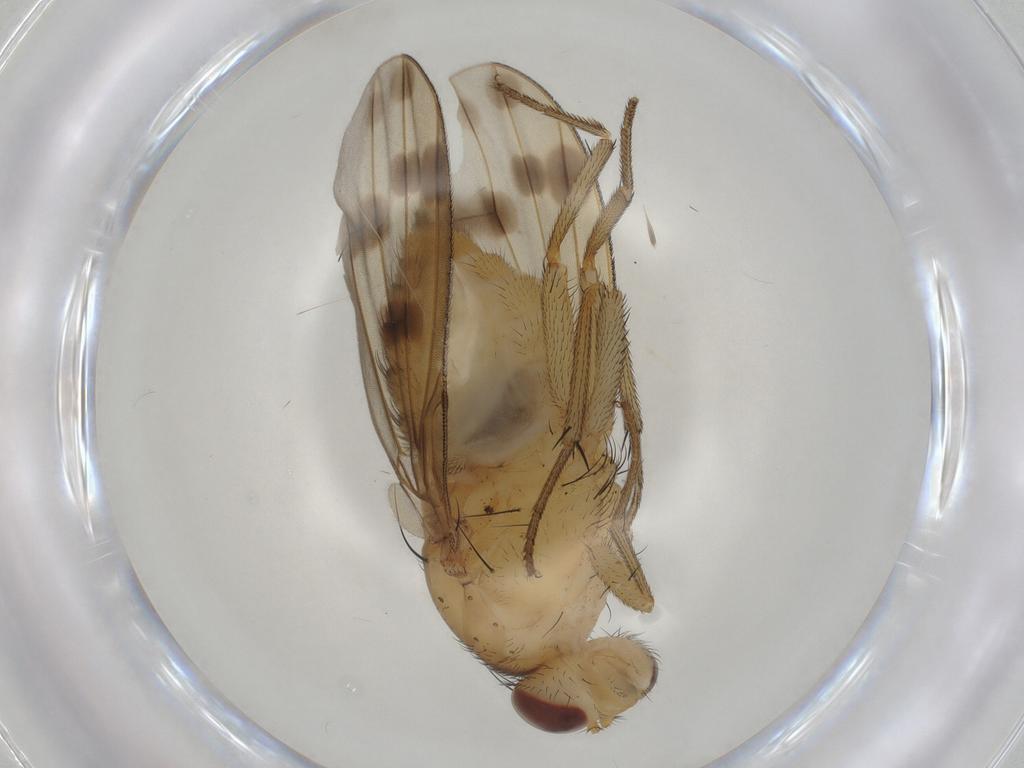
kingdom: Animalia
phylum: Arthropoda
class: Insecta
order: Diptera
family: Lauxaniidae
